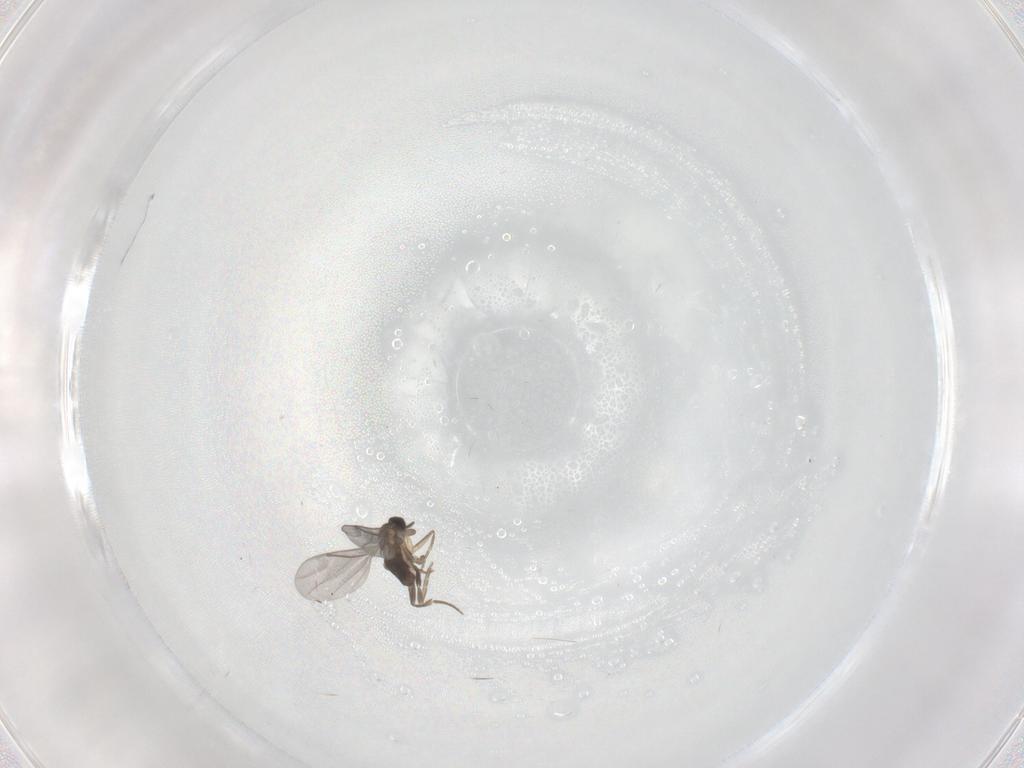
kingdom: Animalia
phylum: Arthropoda
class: Insecta
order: Diptera
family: Cecidomyiidae
